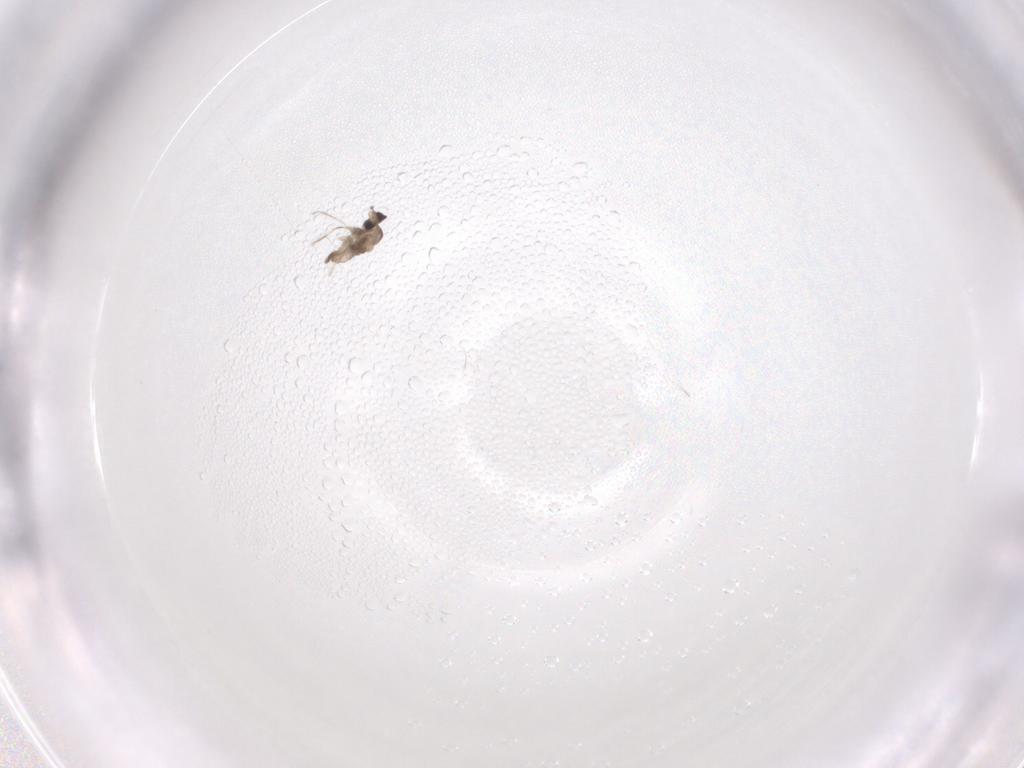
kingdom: Animalia
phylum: Arthropoda
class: Insecta
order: Diptera
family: Cecidomyiidae
